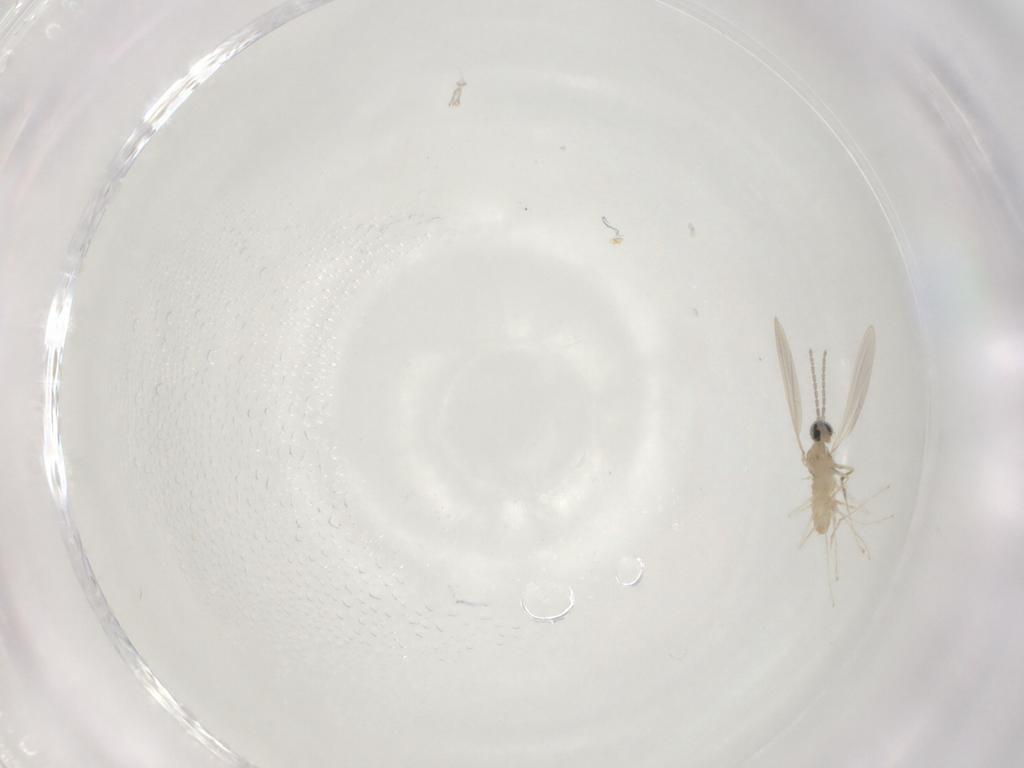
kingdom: Animalia
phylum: Arthropoda
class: Insecta
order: Diptera
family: Cecidomyiidae
